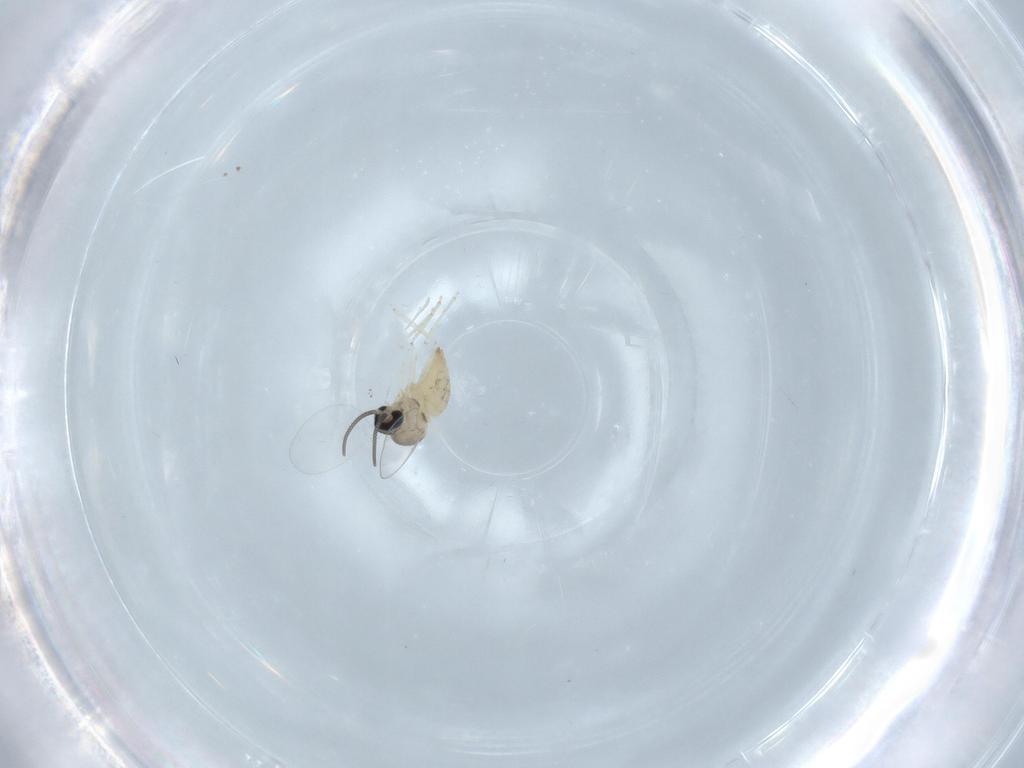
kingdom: Animalia
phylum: Arthropoda
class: Insecta
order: Diptera
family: Cecidomyiidae
